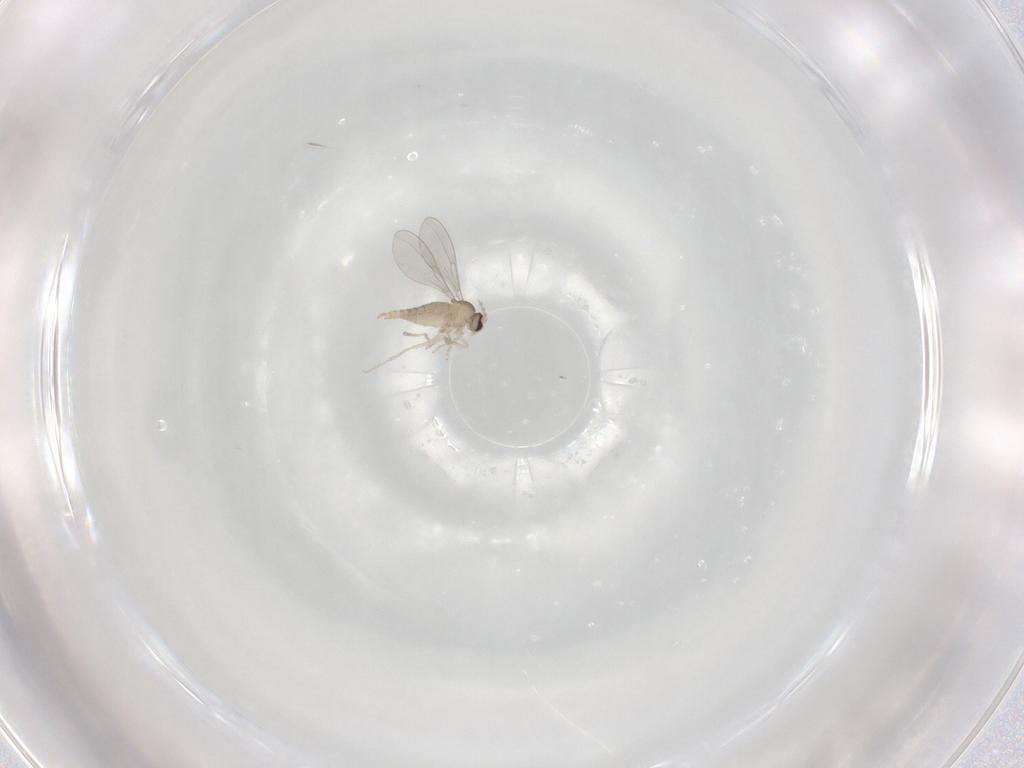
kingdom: Animalia
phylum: Arthropoda
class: Insecta
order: Diptera
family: Cecidomyiidae
